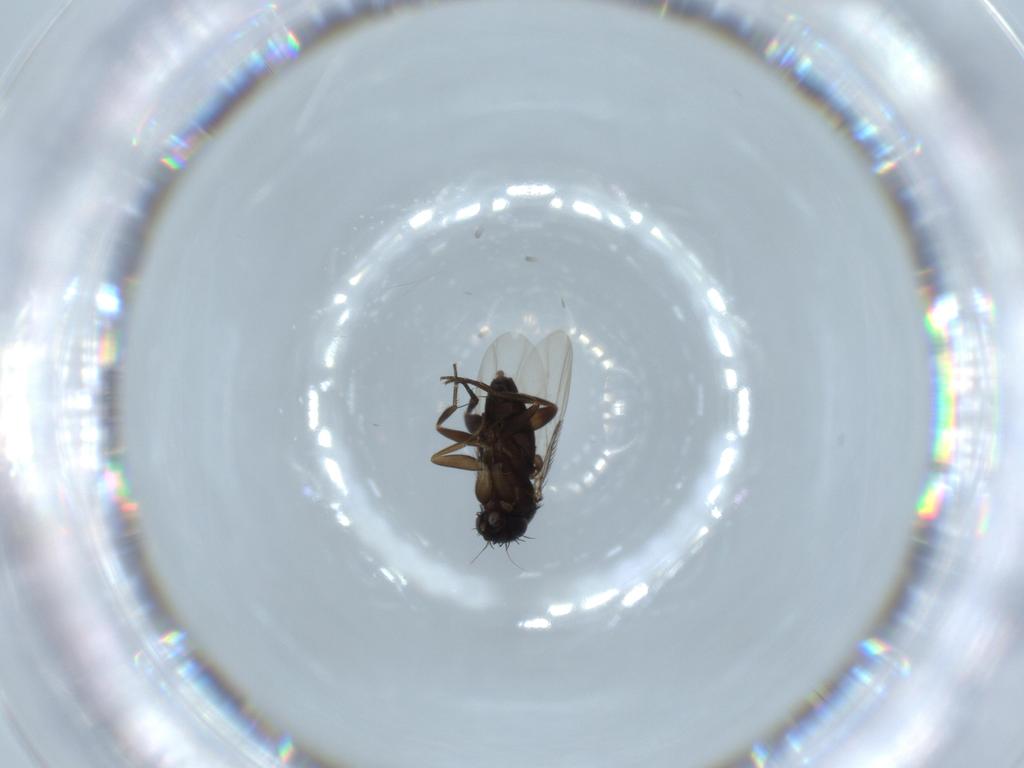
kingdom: Animalia
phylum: Arthropoda
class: Insecta
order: Diptera
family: Phoridae
